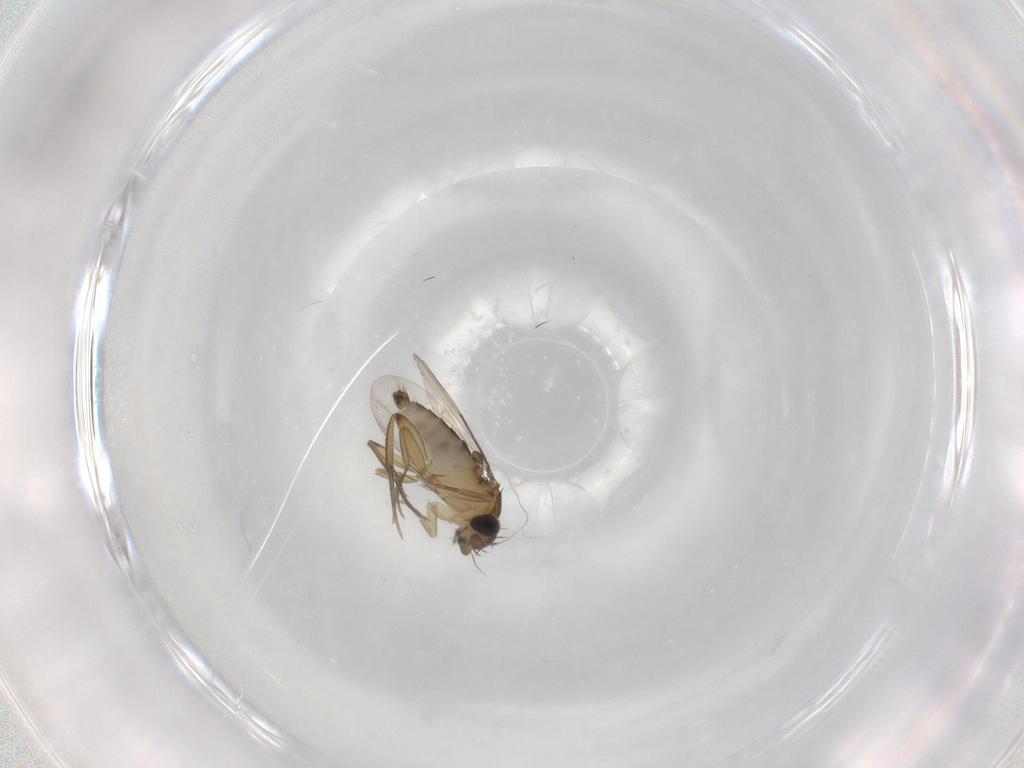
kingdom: Animalia
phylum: Arthropoda
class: Insecta
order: Diptera
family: Phoridae
